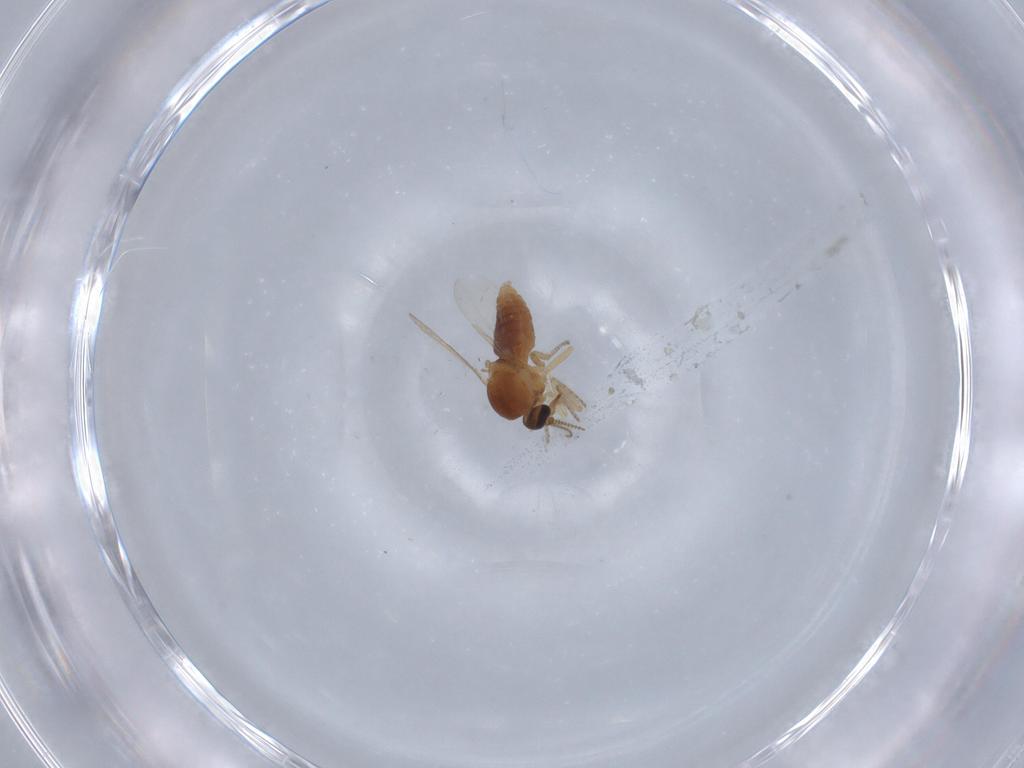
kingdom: Animalia
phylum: Arthropoda
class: Insecta
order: Diptera
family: Ceratopogonidae
